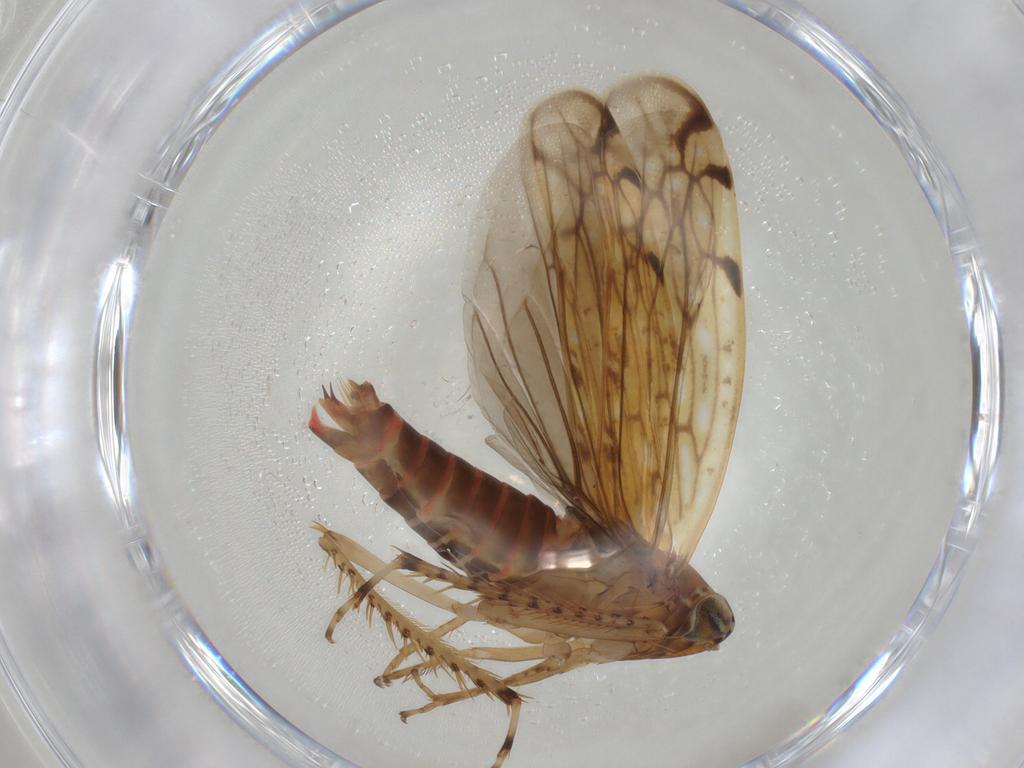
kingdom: Animalia
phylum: Arthropoda
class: Insecta
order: Hemiptera
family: Cicadellidae
